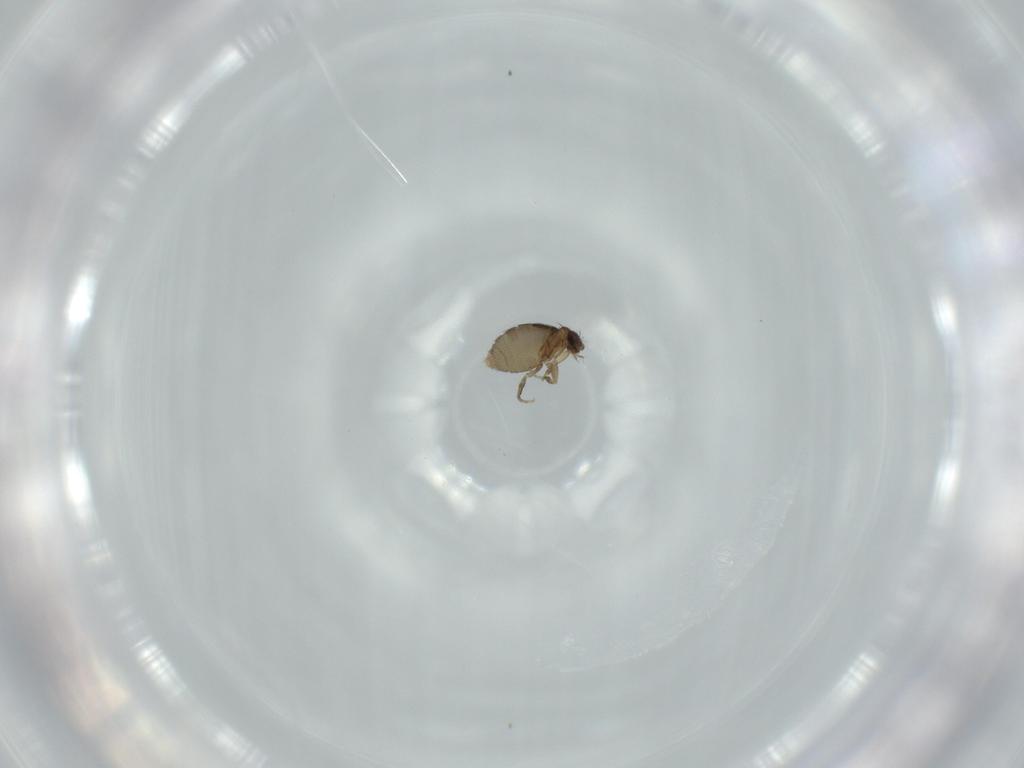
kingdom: Animalia
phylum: Arthropoda
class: Insecta
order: Diptera
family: Phoridae
